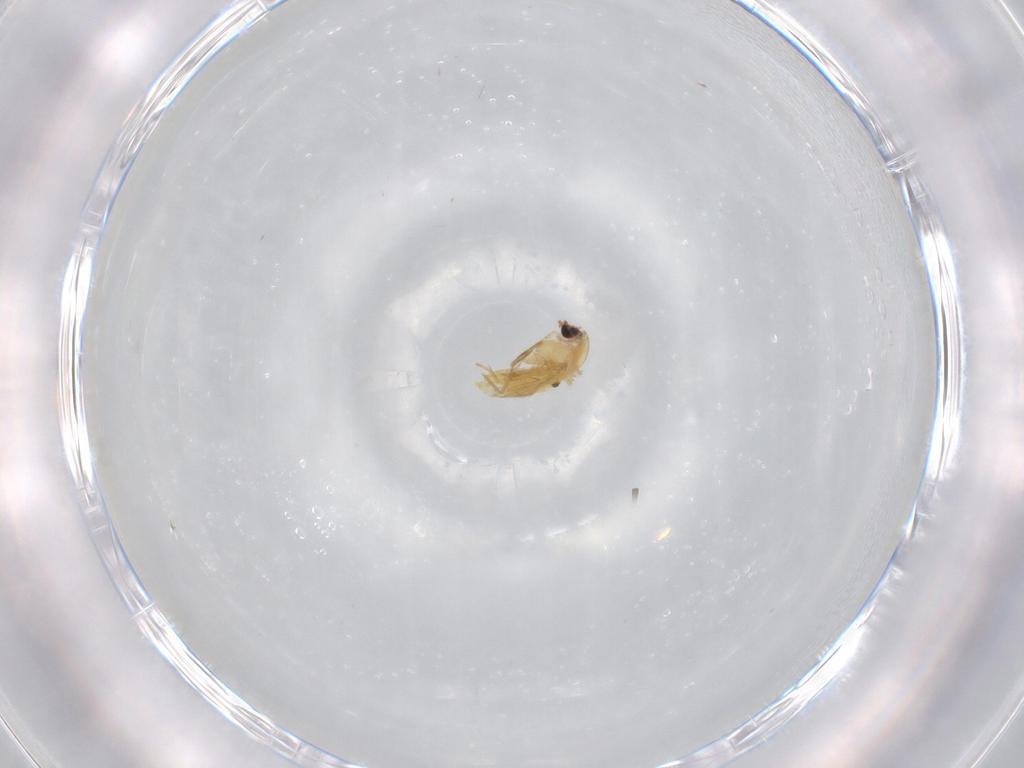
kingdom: Animalia
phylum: Arthropoda
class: Insecta
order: Diptera
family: Chironomidae
